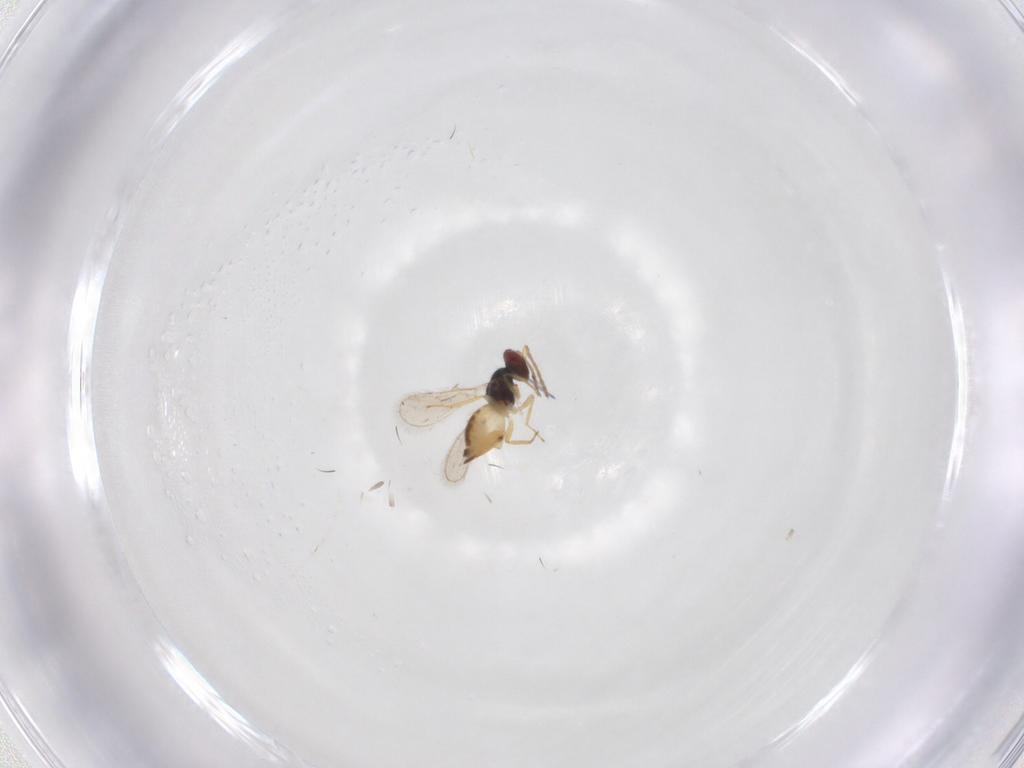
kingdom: Animalia
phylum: Arthropoda
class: Insecta
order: Hymenoptera
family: Eulophidae
